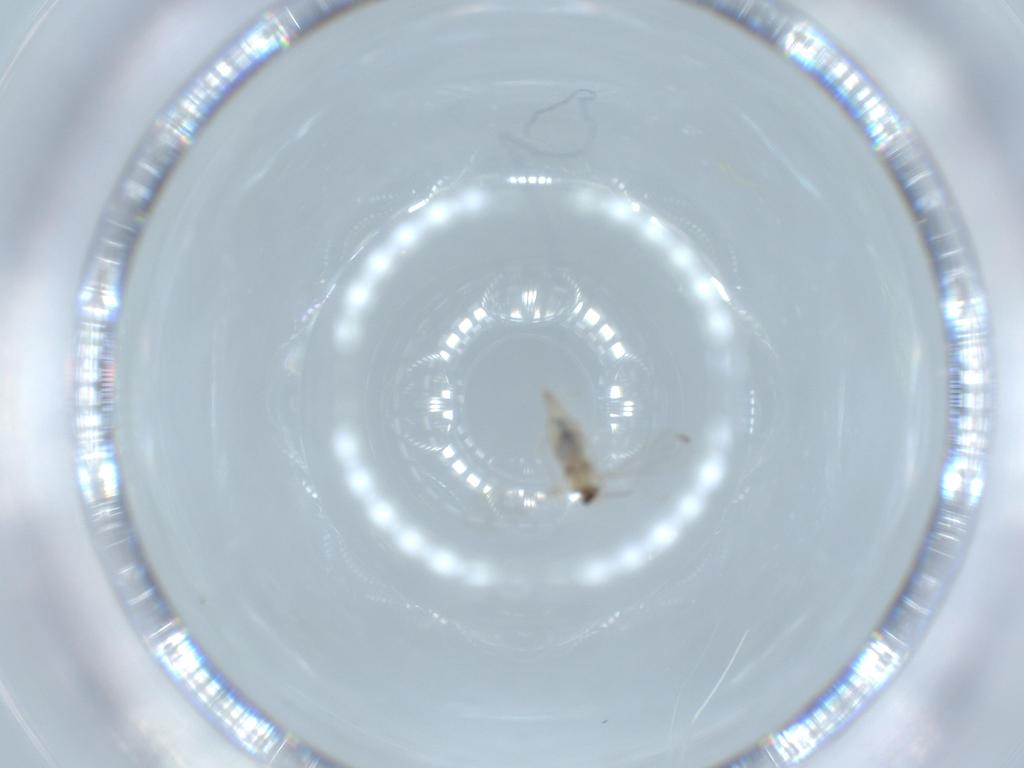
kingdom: Animalia
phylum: Arthropoda
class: Insecta
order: Diptera
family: Cecidomyiidae
